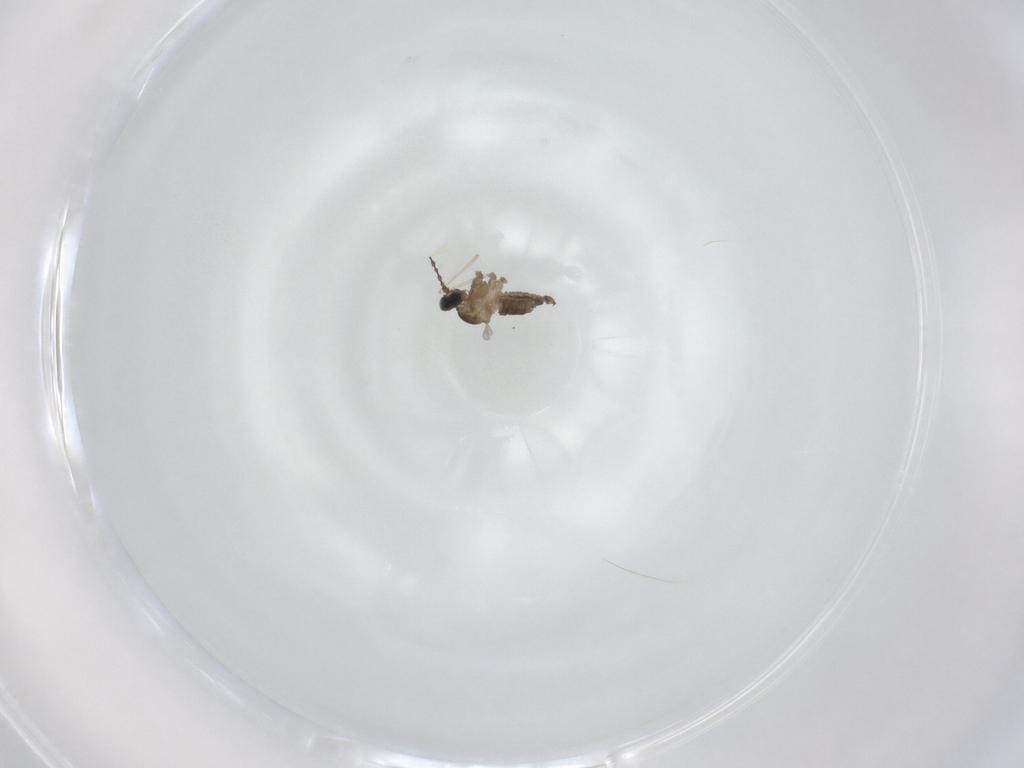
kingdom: Animalia
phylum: Arthropoda
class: Insecta
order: Diptera
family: Cecidomyiidae
